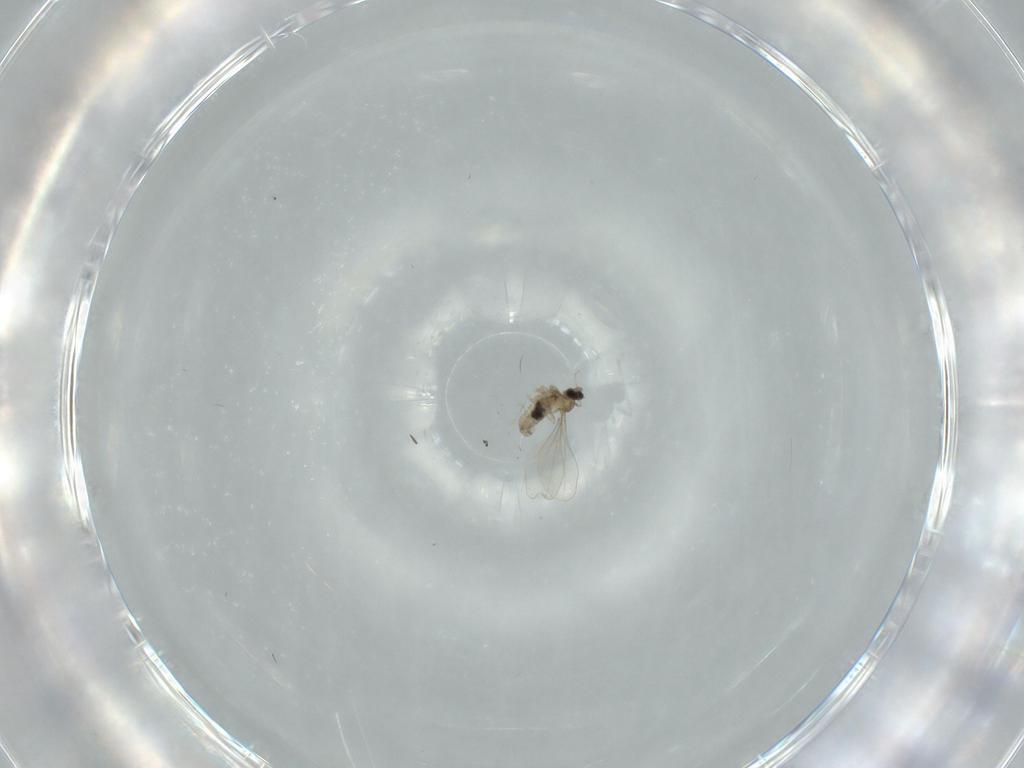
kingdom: Animalia
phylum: Arthropoda
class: Insecta
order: Diptera
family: Cecidomyiidae
